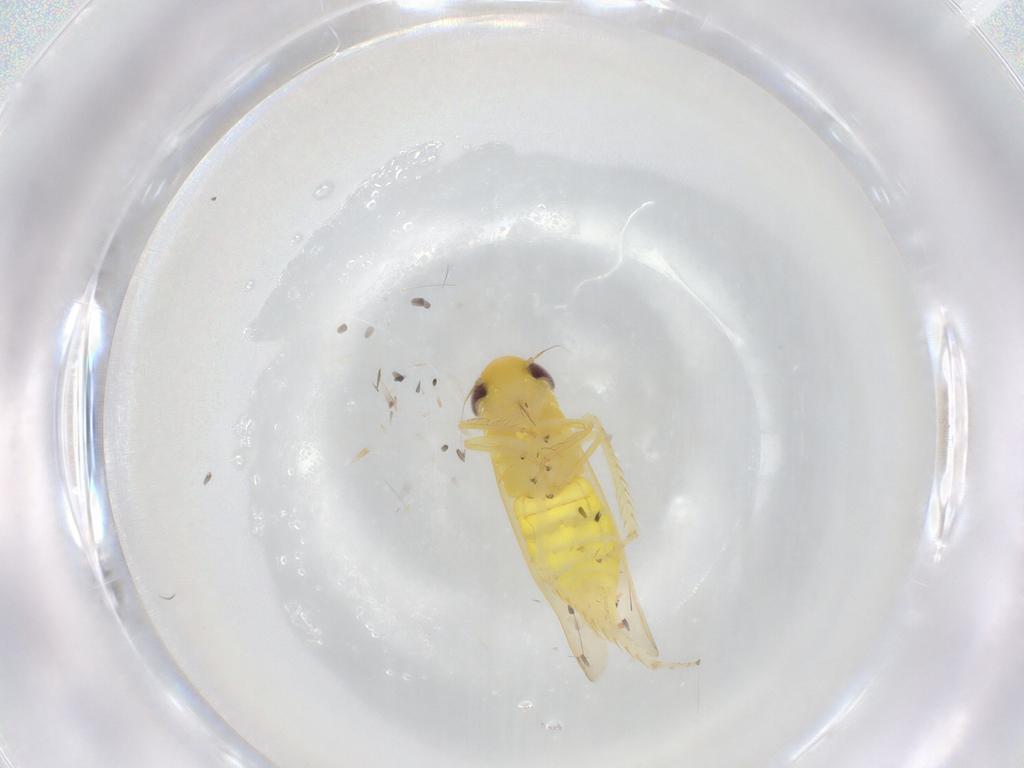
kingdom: Animalia
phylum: Arthropoda
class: Insecta
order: Hemiptera
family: Cicadellidae
